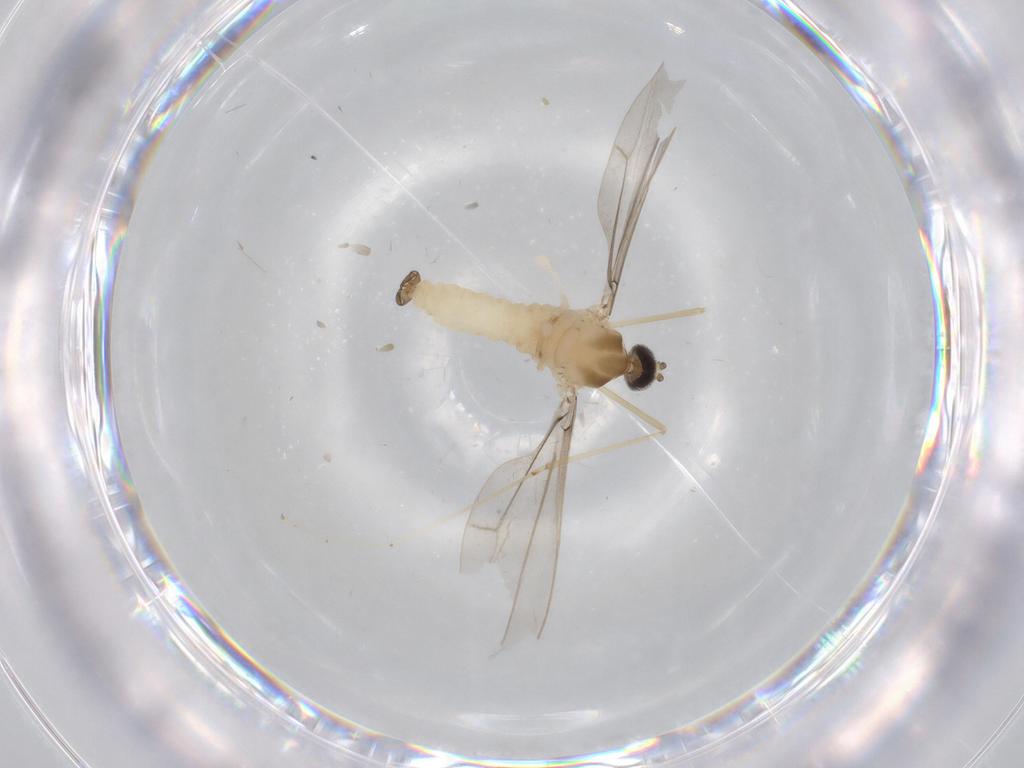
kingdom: Animalia
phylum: Arthropoda
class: Insecta
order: Diptera
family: Cecidomyiidae
